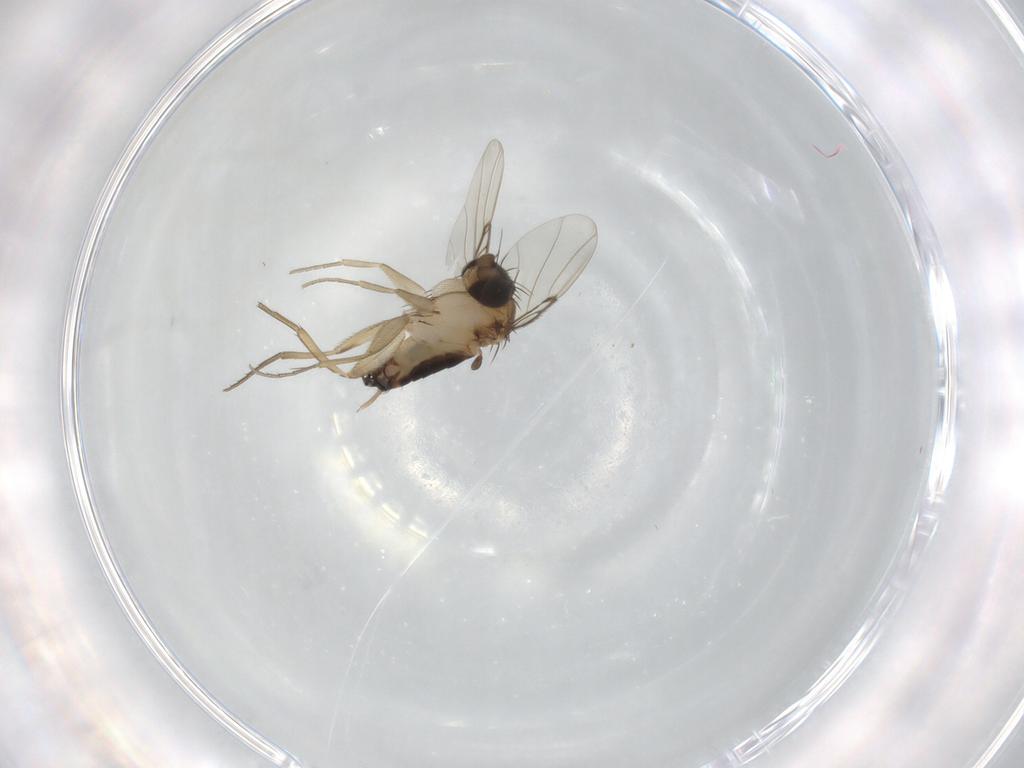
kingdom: Animalia
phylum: Arthropoda
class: Insecta
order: Diptera
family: Phoridae
